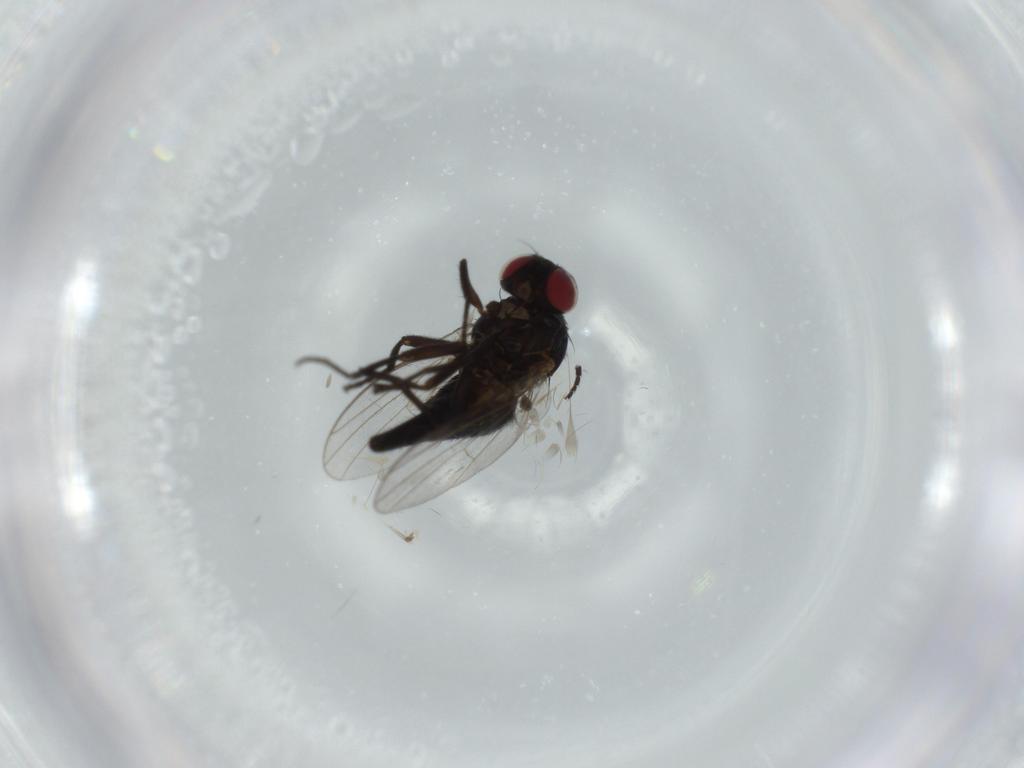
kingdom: Animalia
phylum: Arthropoda
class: Insecta
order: Diptera
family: Agromyzidae
